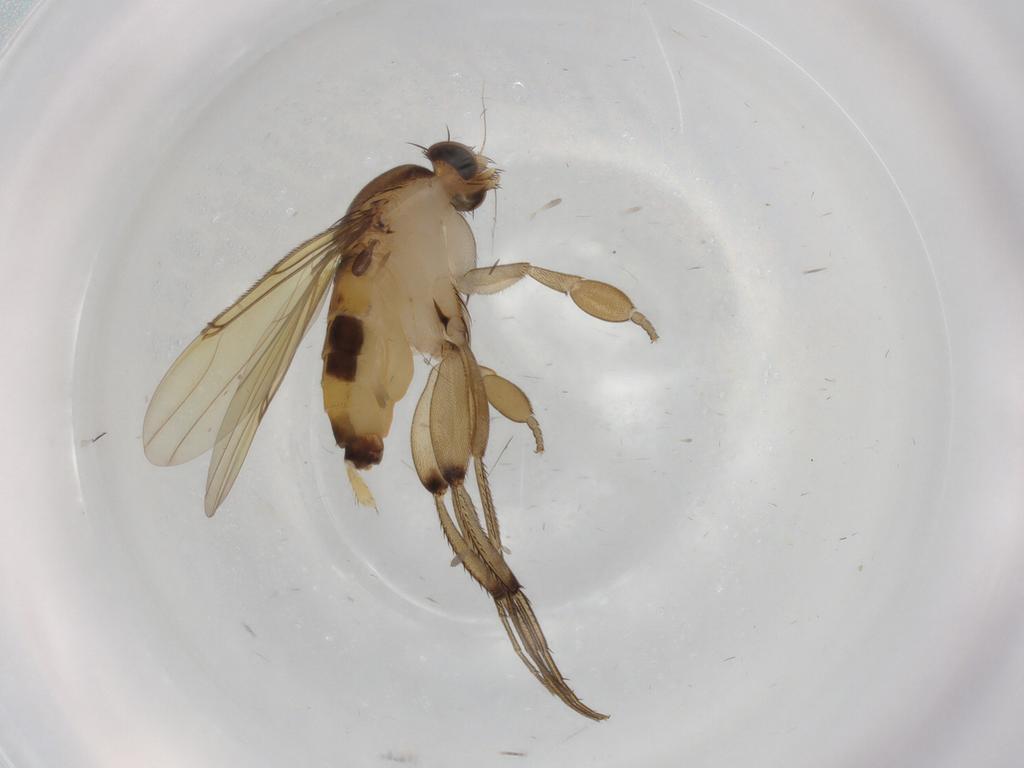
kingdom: Animalia
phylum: Arthropoda
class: Insecta
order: Diptera
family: Phoridae
